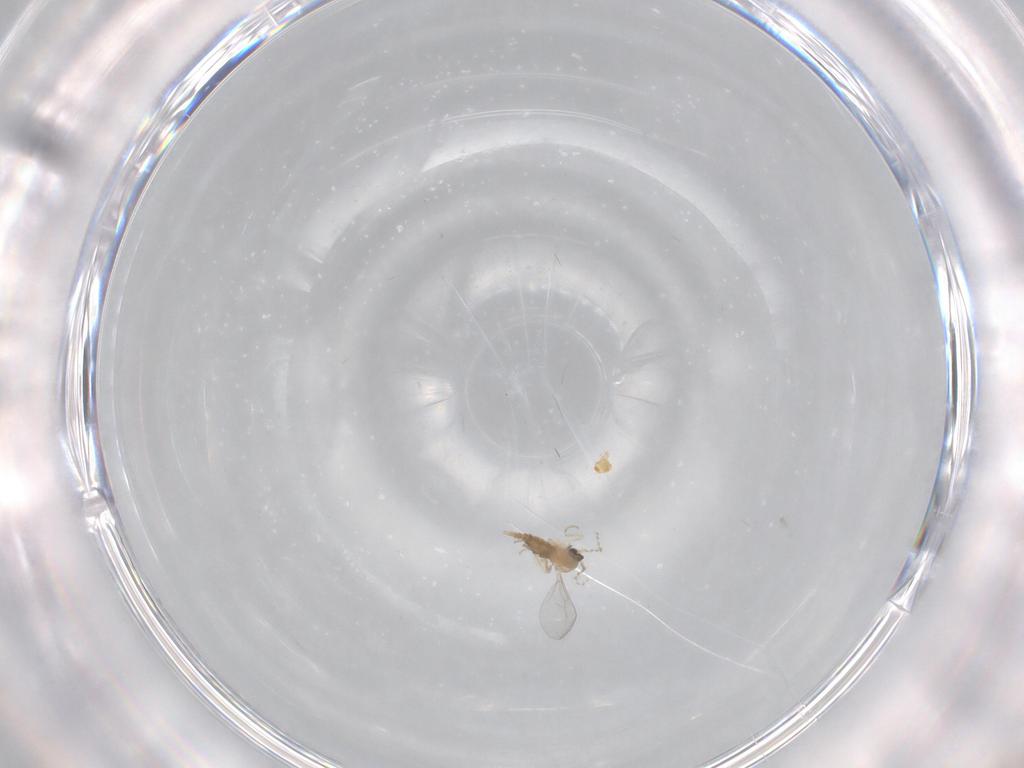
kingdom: Animalia
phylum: Arthropoda
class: Insecta
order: Diptera
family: Cecidomyiidae
